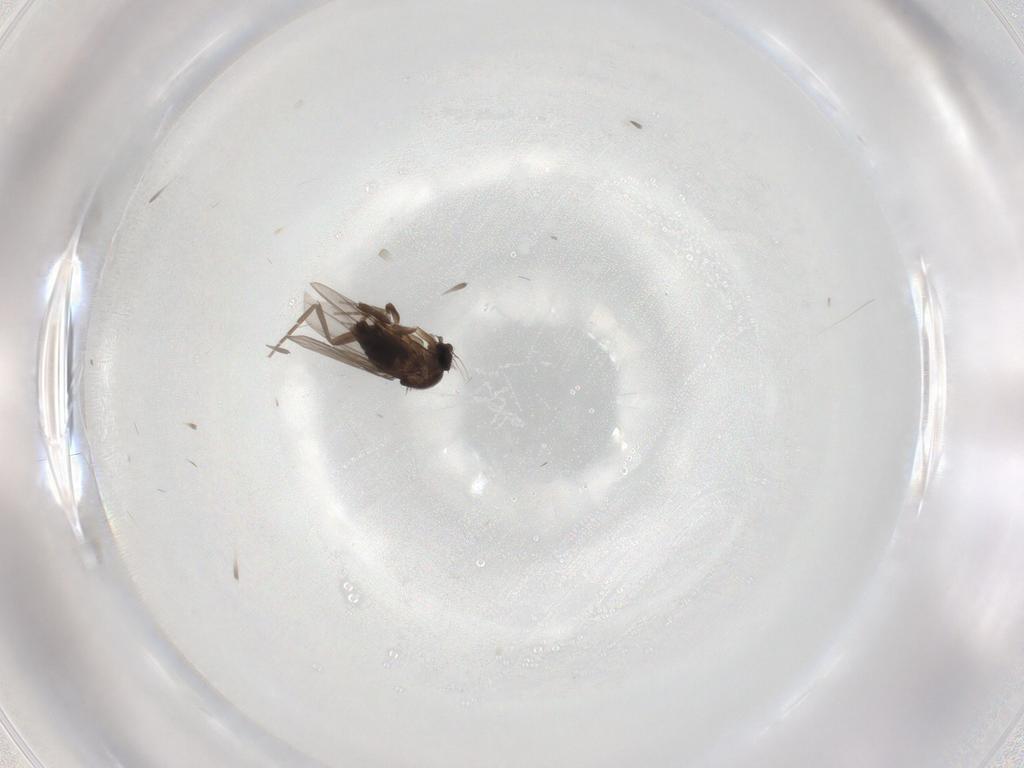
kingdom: Animalia
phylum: Arthropoda
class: Insecta
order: Diptera
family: Phoridae
